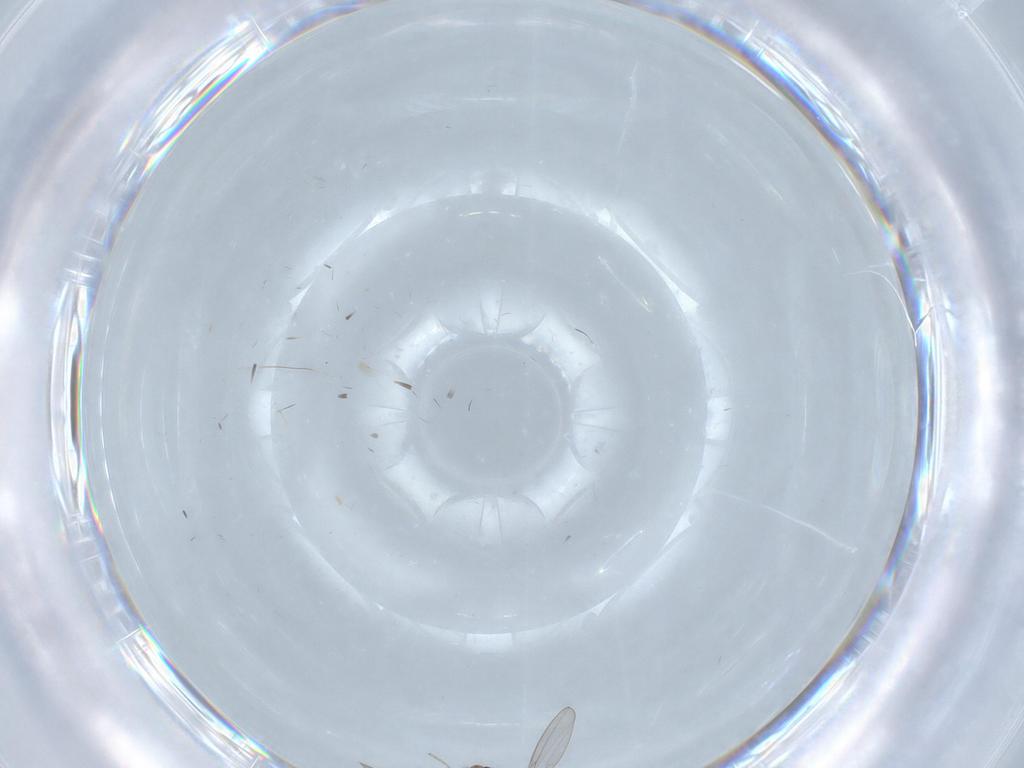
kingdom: Animalia
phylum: Arthropoda
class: Insecta
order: Diptera
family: Cecidomyiidae
